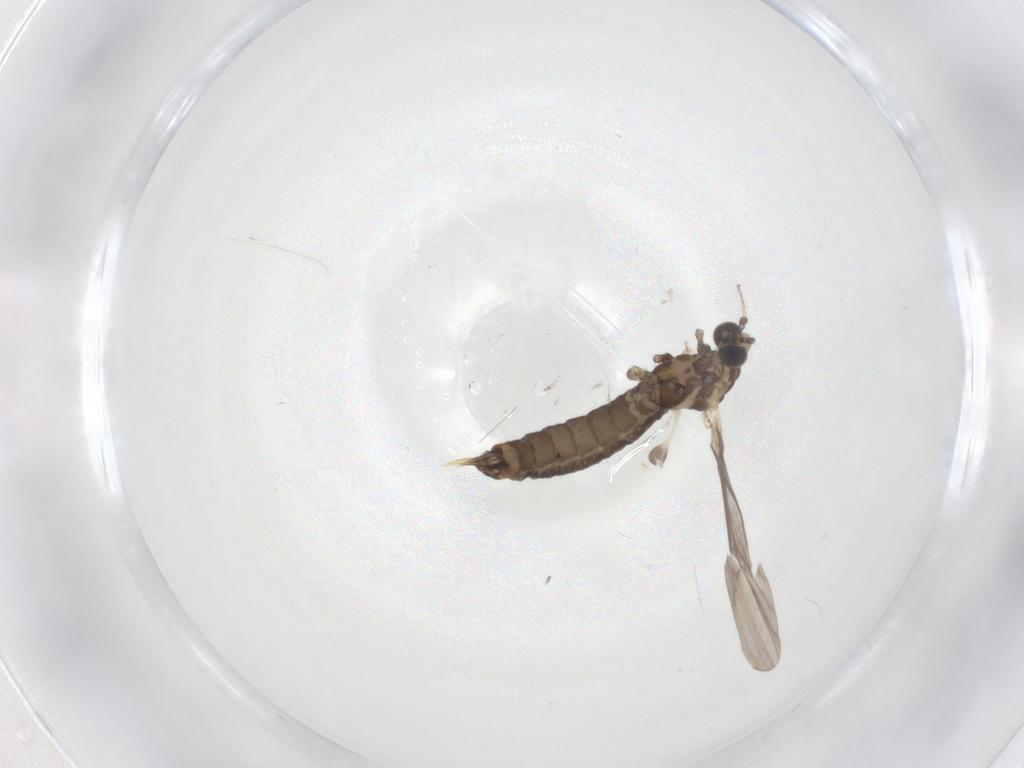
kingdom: Animalia
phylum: Arthropoda
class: Insecta
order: Diptera
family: Limoniidae
